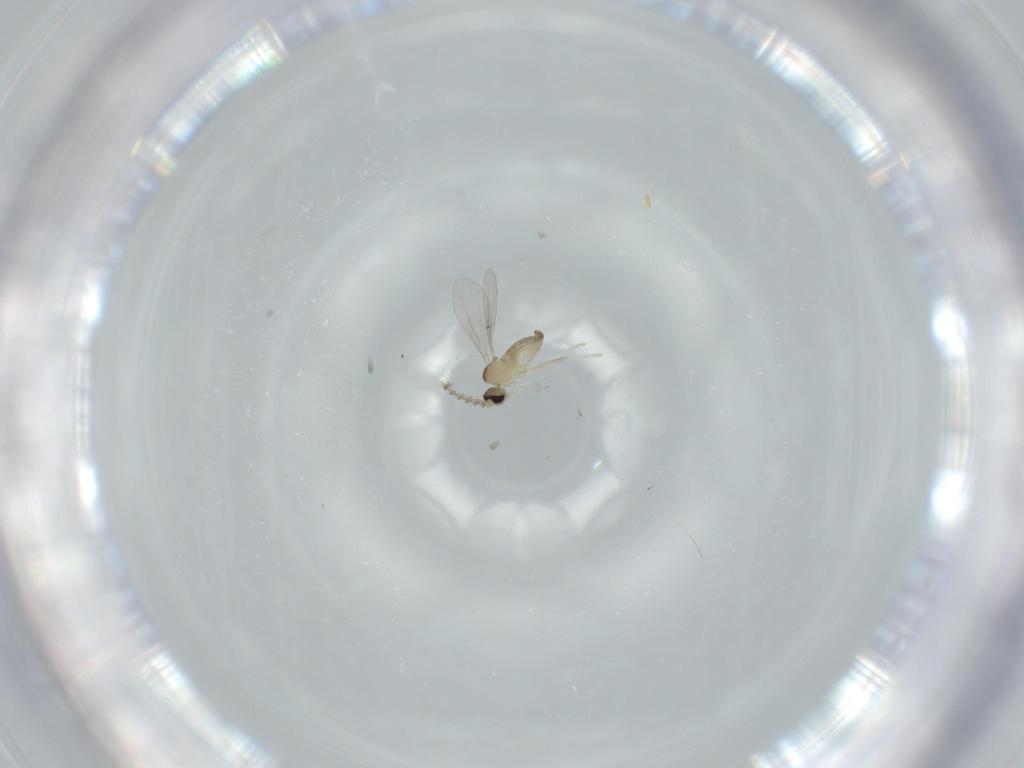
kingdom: Animalia
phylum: Arthropoda
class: Insecta
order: Diptera
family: Cecidomyiidae
